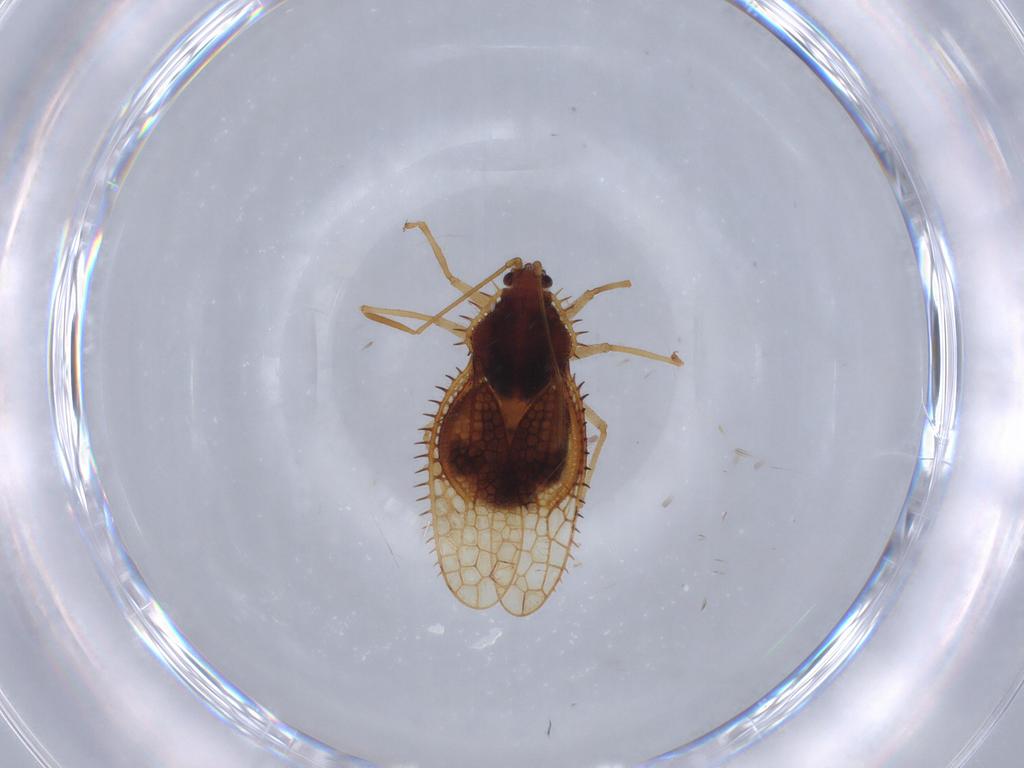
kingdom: Animalia
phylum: Arthropoda
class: Insecta
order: Hemiptera
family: Tingidae
